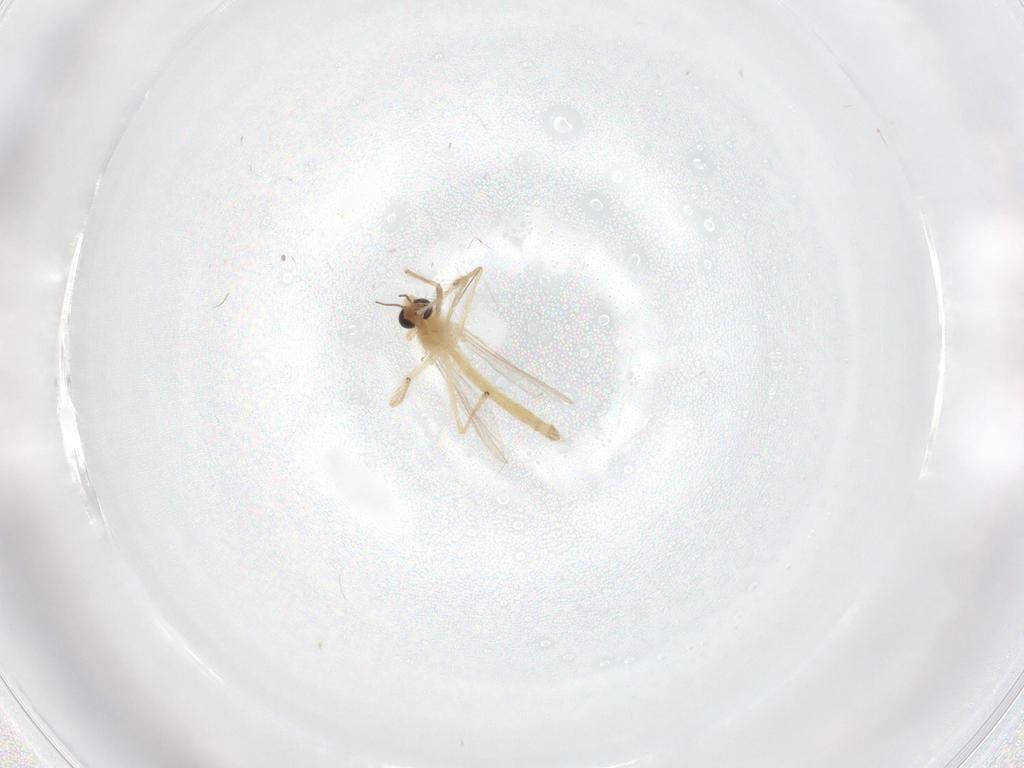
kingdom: Animalia
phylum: Arthropoda
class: Insecta
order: Diptera
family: Chironomidae
